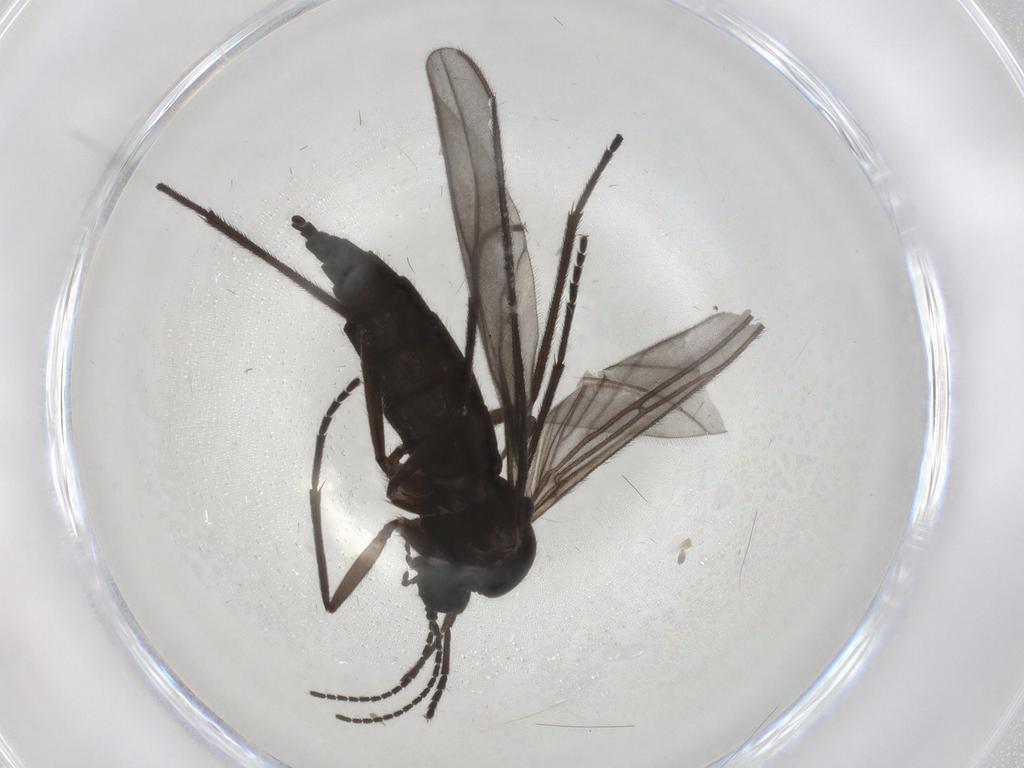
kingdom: Animalia
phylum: Arthropoda
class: Insecta
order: Diptera
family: Sciaridae
